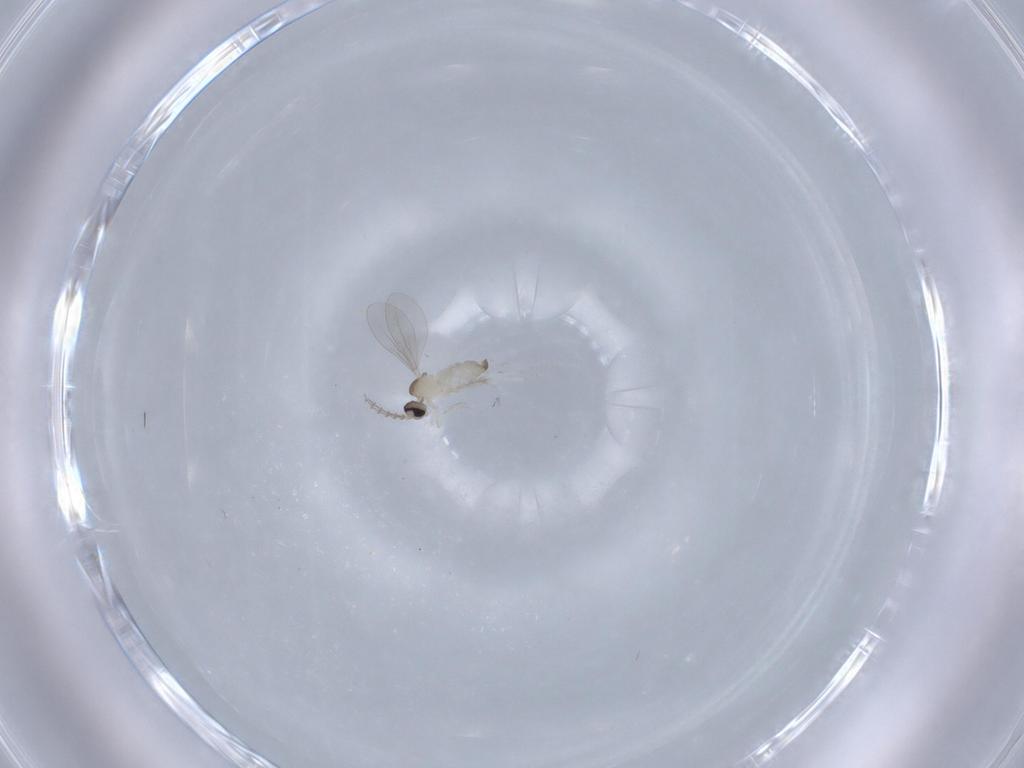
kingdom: Animalia
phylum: Arthropoda
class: Insecta
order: Diptera
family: Cecidomyiidae
